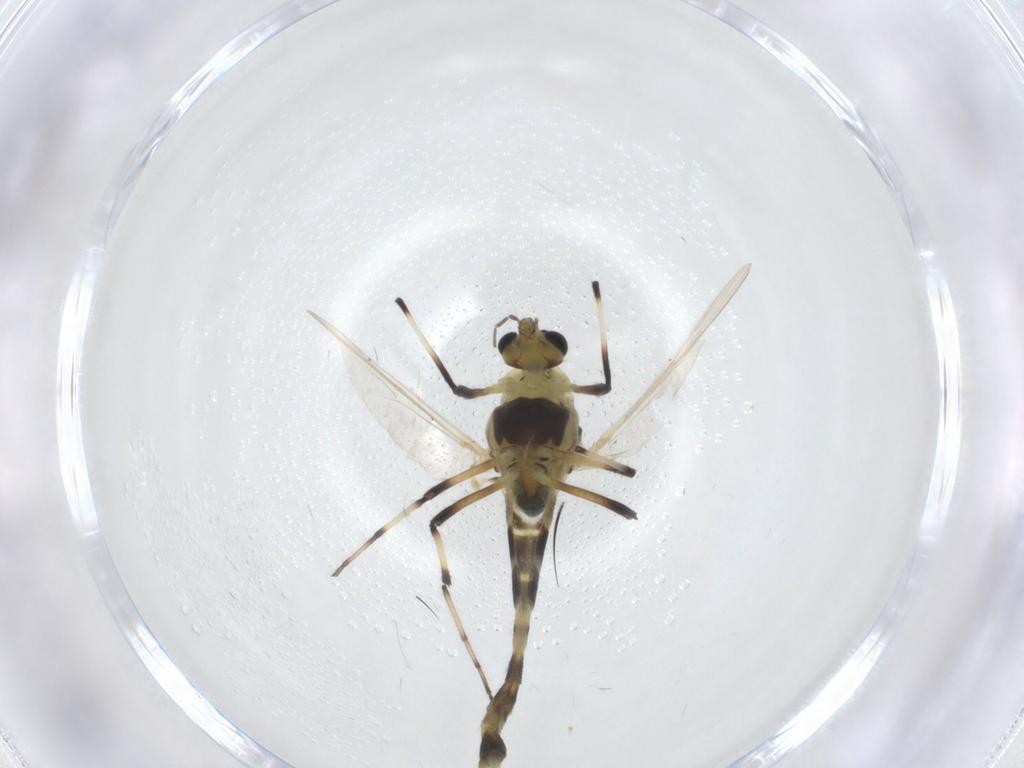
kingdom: Animalia
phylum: Arthropoda
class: Insecta
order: Diptera
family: Chironomidae
